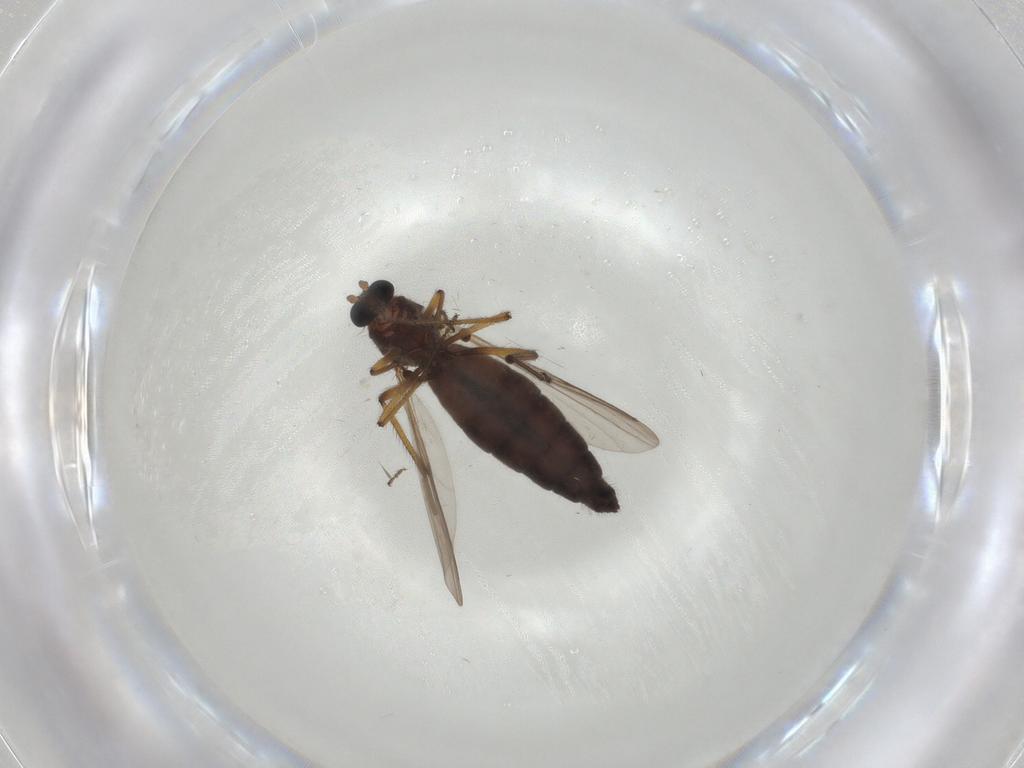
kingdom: Animalia
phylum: Arthropoda
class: Insecta
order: Diptera
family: Hybotidae
